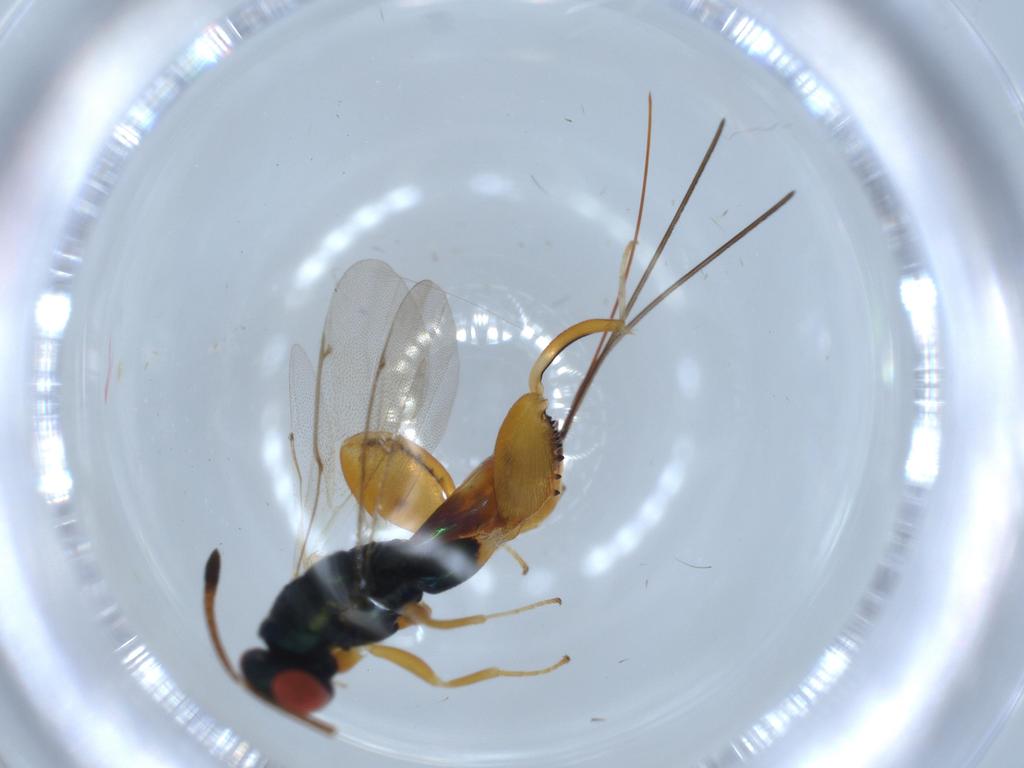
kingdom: Animalia
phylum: Arthropoda
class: Insecta
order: Hymenoptera
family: Torymidae
